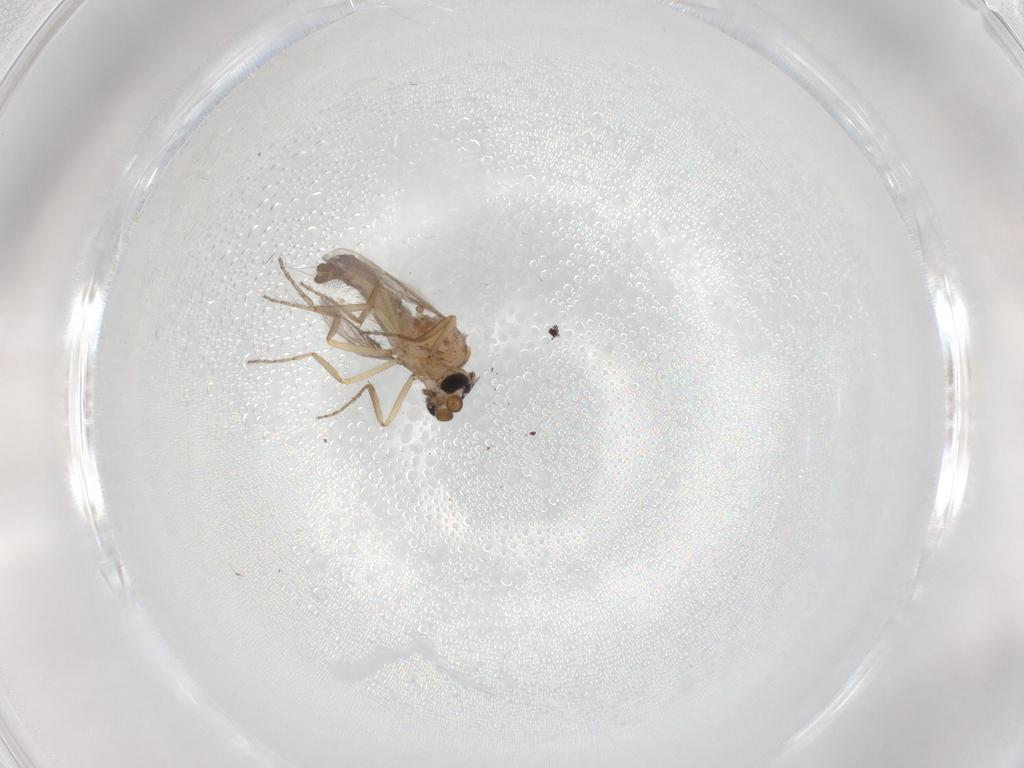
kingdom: Animalia
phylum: Arthropoda
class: Insecta
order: Diptera
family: Ceratopogonidae
